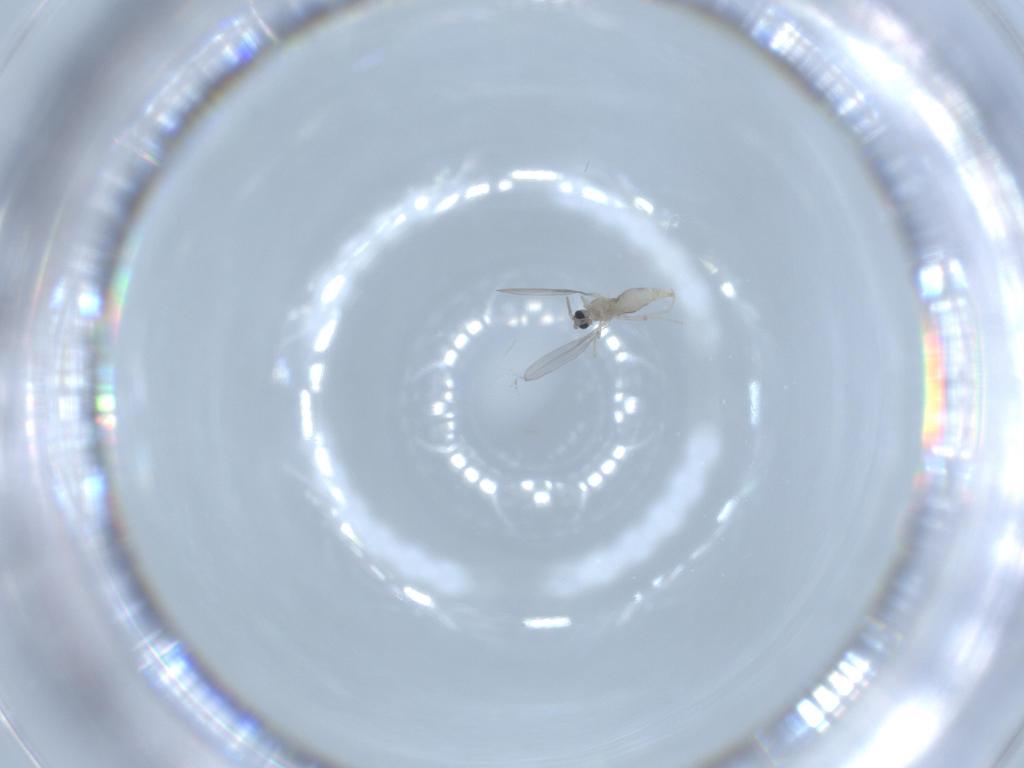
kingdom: Animalia
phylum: Arthropoda
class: Insecta
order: Diptera
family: Cecidomyiidae
